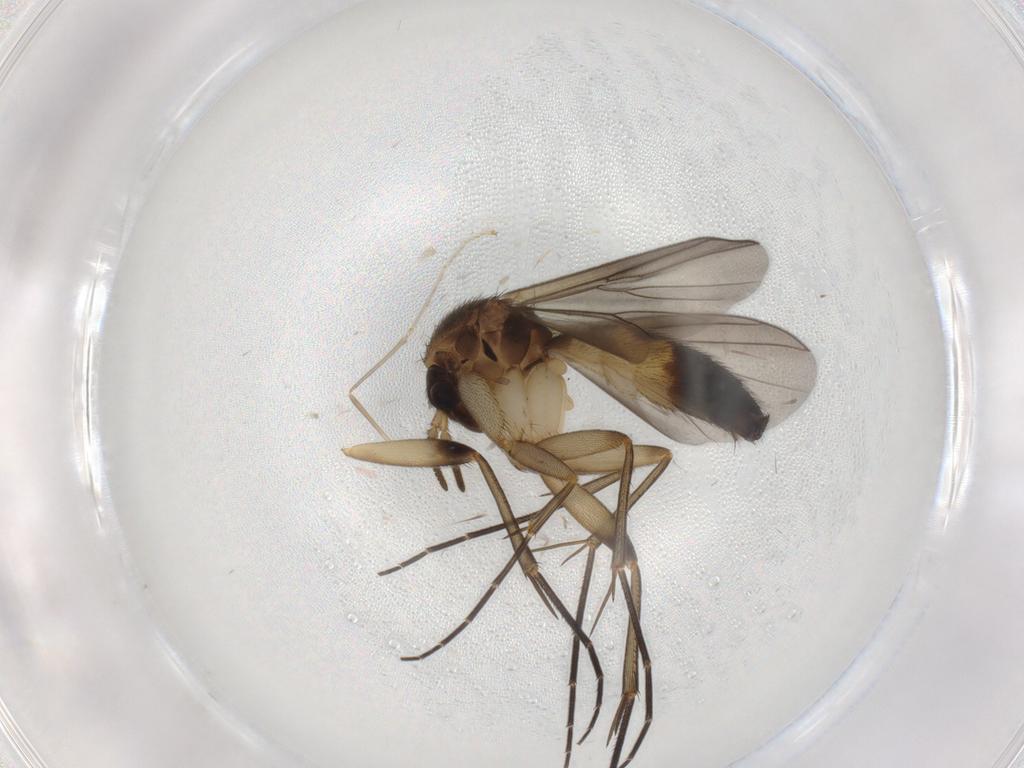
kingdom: Animalia
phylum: Arthropoda
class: Insecta
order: Diptera
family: Mycetophilidae
